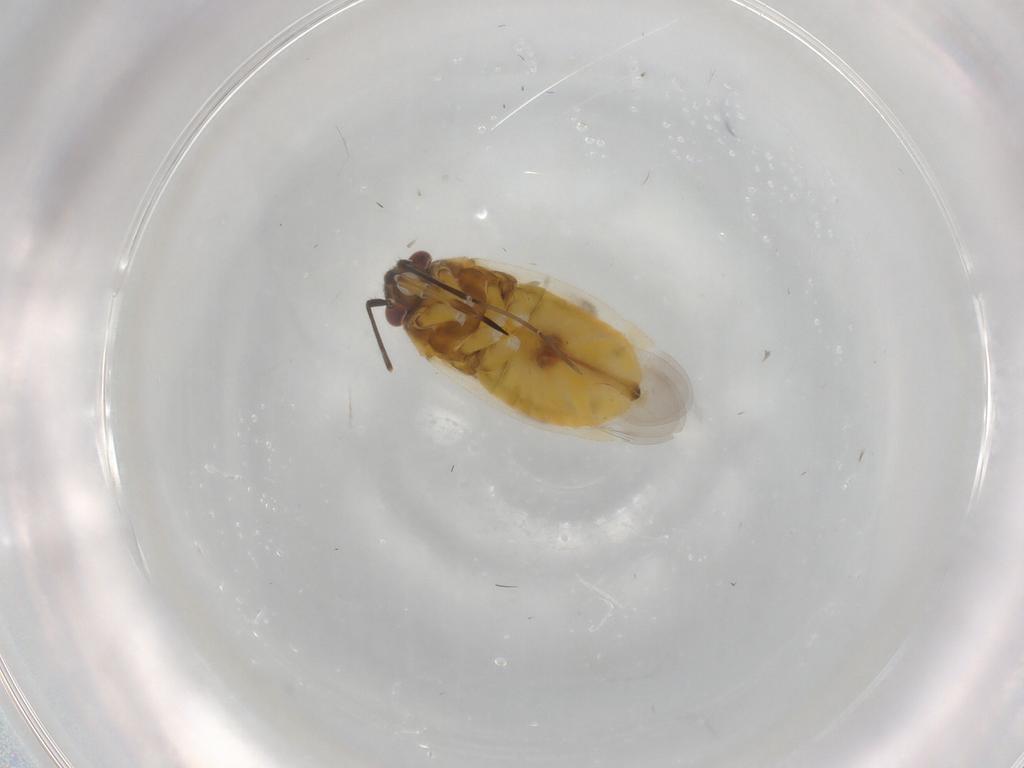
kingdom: Animalia
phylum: Arthropoda
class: Insecta
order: Hemiptera
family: Miridae
